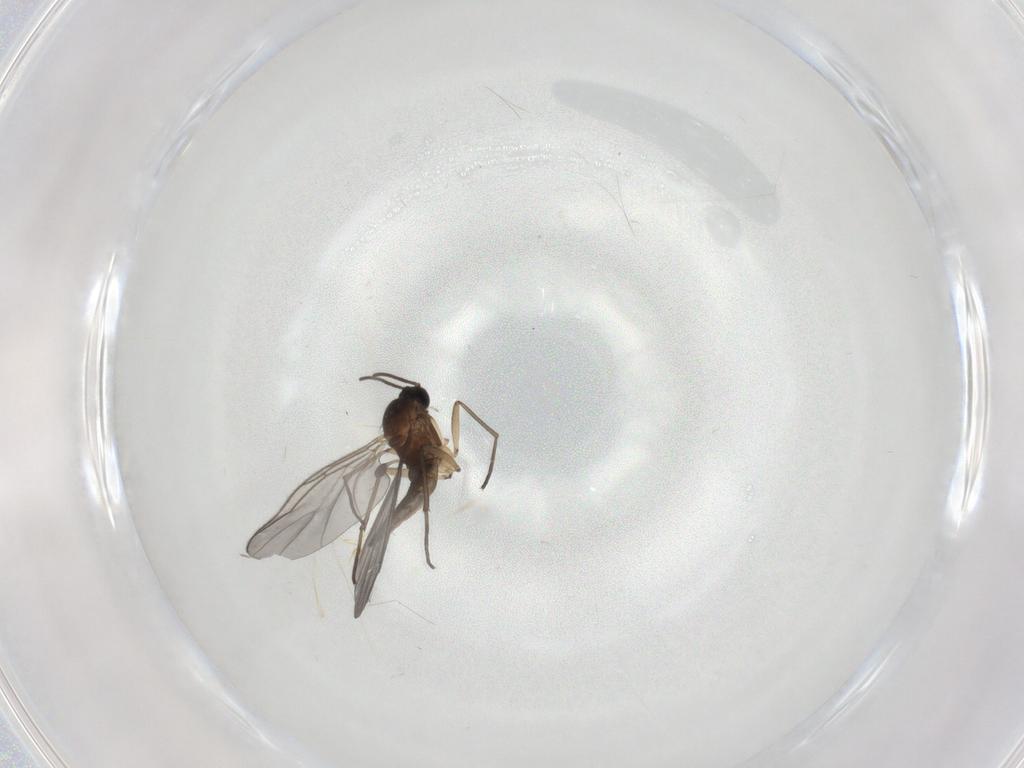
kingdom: Animalia
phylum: Arthropoda
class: Insecta
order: Diptera
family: Sciaridae
